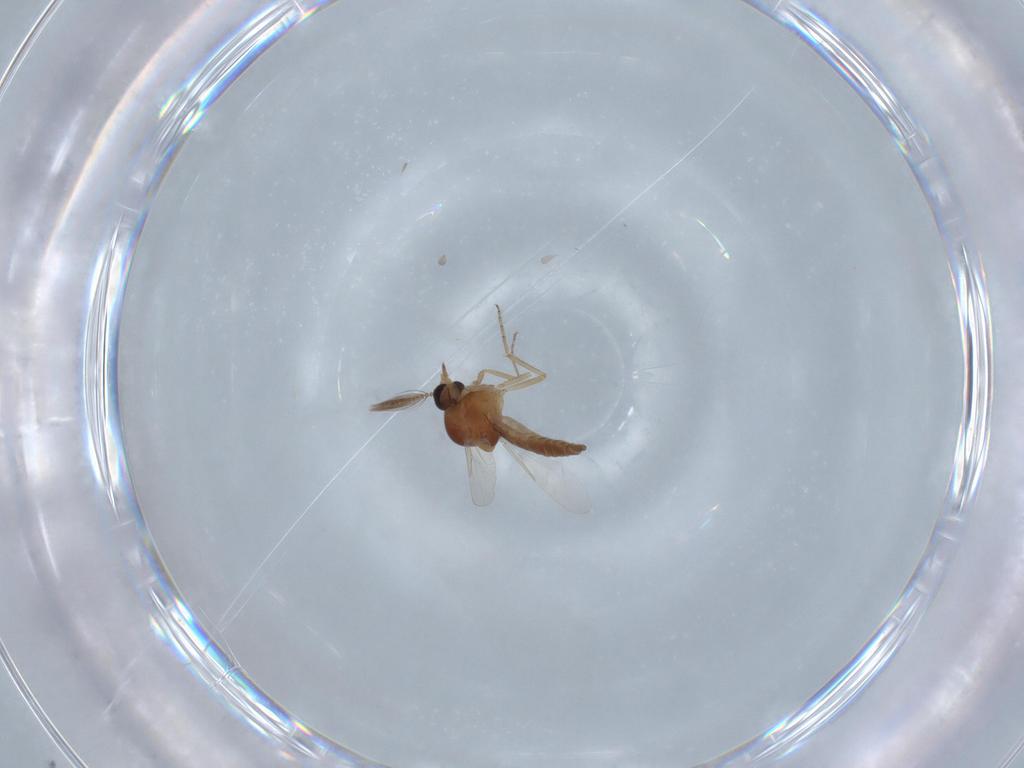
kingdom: Animalia
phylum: Arthropoda
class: Insecta
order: Diptera
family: Ceratopogonidae
